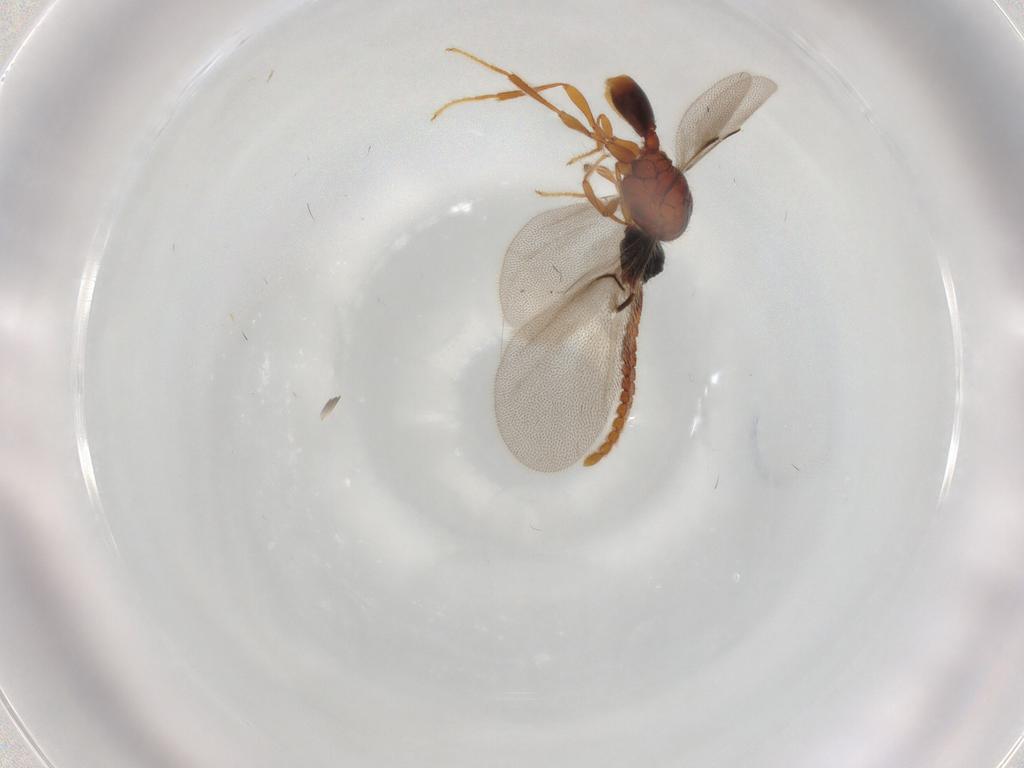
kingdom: Animalia
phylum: Arthropoda
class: Insecta
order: Hymenoptera
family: Diapriidae
